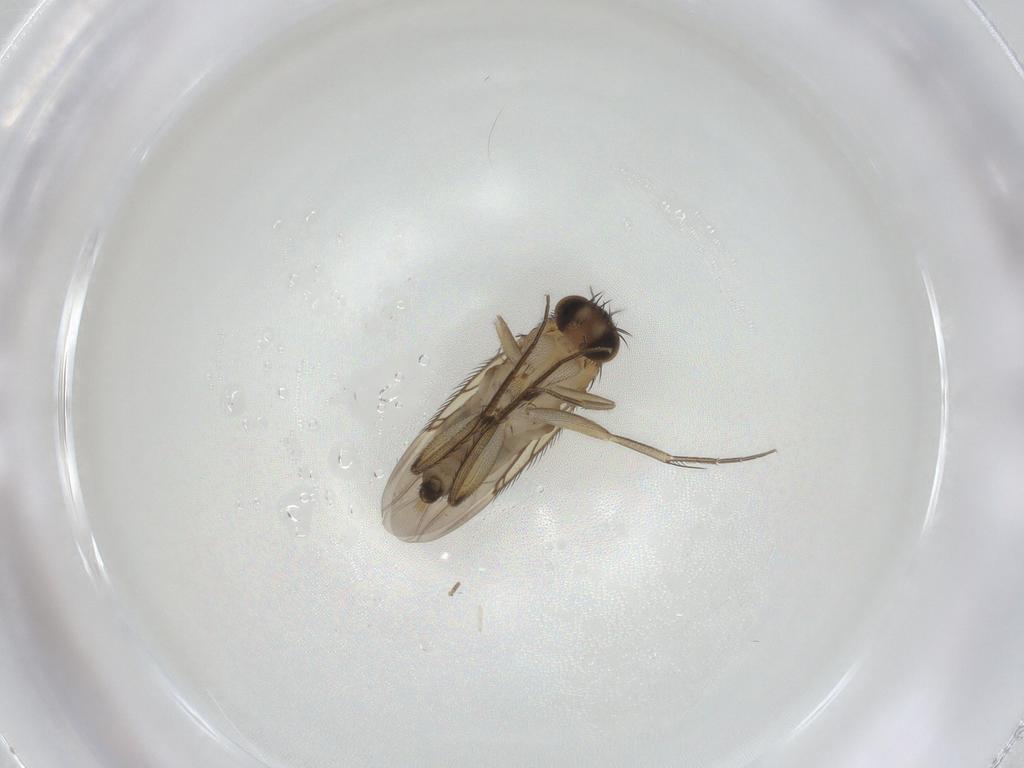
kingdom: Animalia
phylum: Arthropoda
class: Insecta
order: Diptera
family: Phoridae
